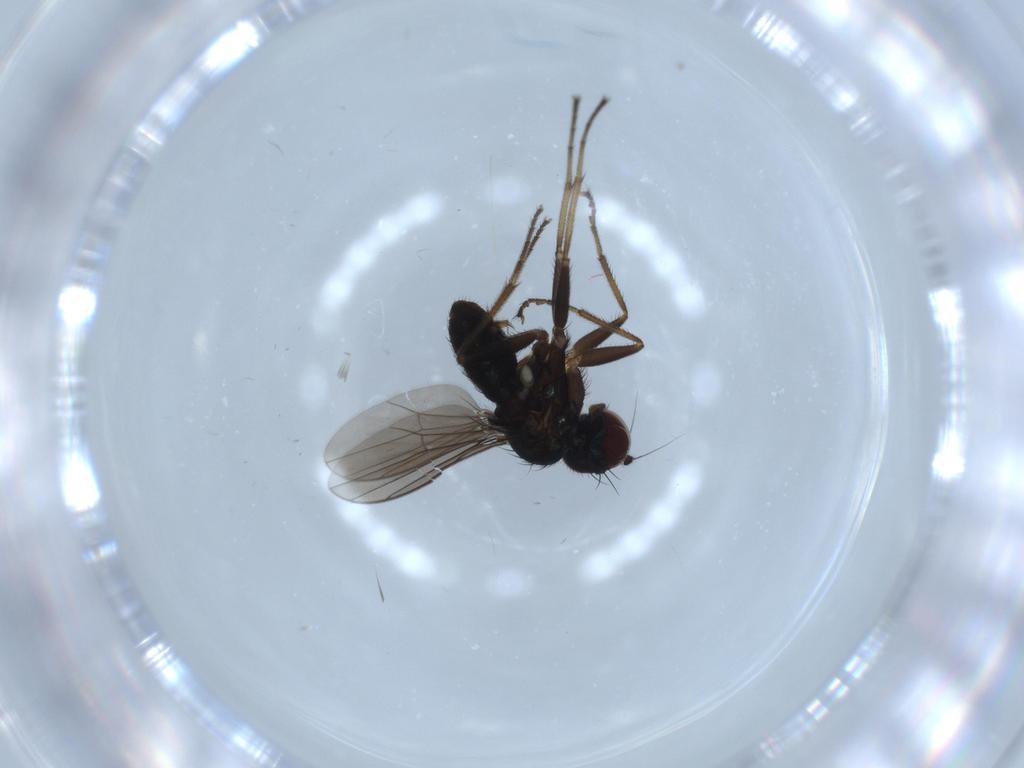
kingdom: Animalia
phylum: Arthropoda
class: Insecta
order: Diptera
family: Dolichopodidae
